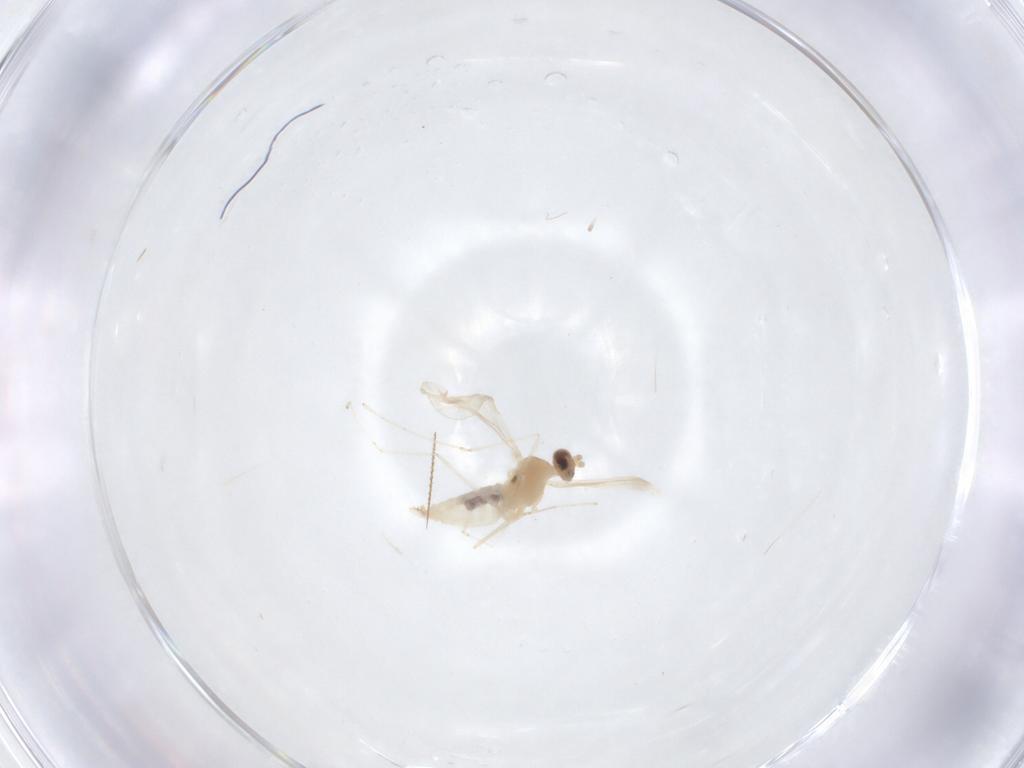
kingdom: Animalia
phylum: Arthropoda
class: Insecta
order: Diptera
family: Cecidomyiidae
